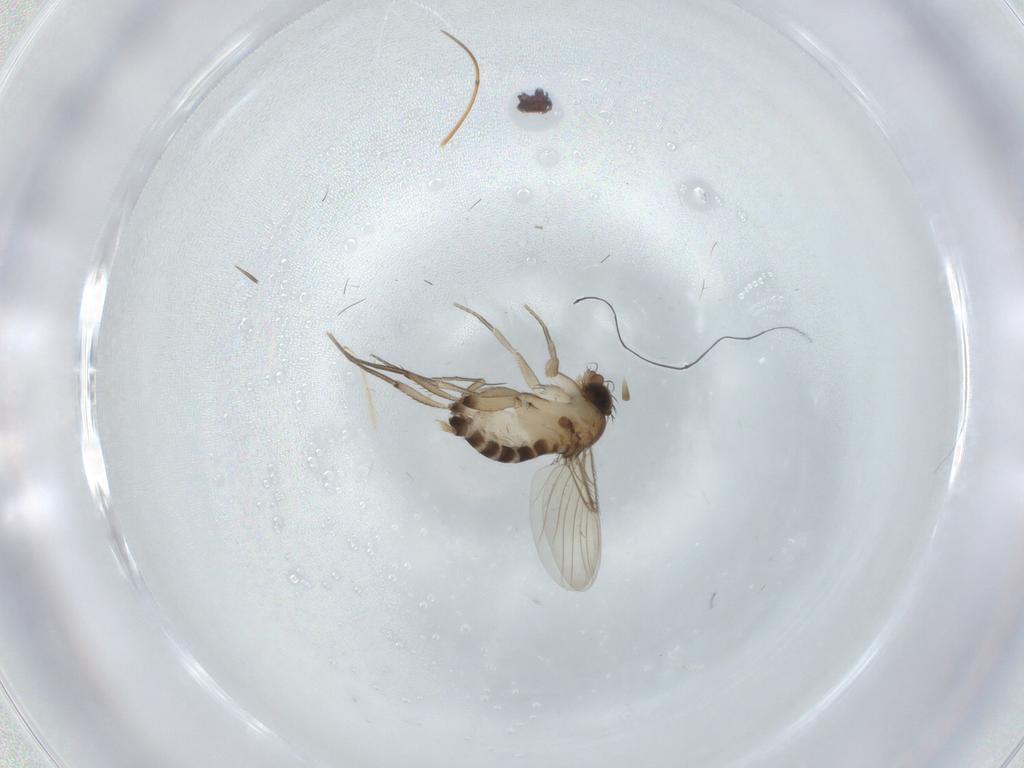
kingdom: Animalia
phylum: Arthropoda
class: Insecta
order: Diptera
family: Phoridae
